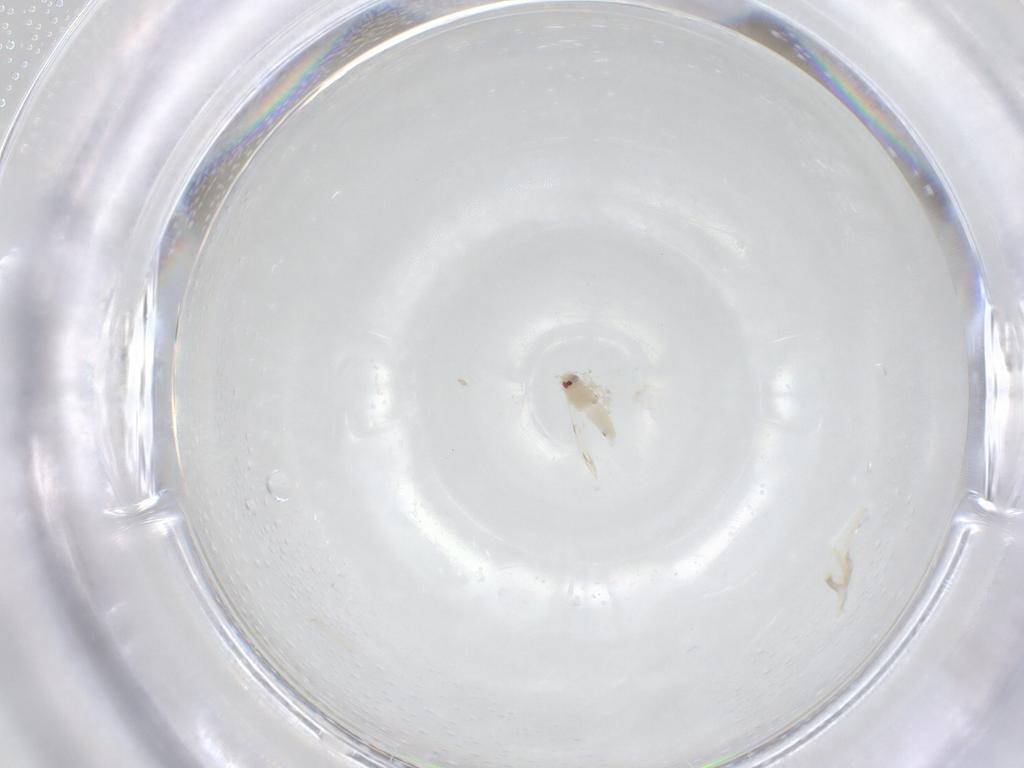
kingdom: Animalia
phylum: Arthropoda
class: Insecta
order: Hemiptera
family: Aleyrodidae
